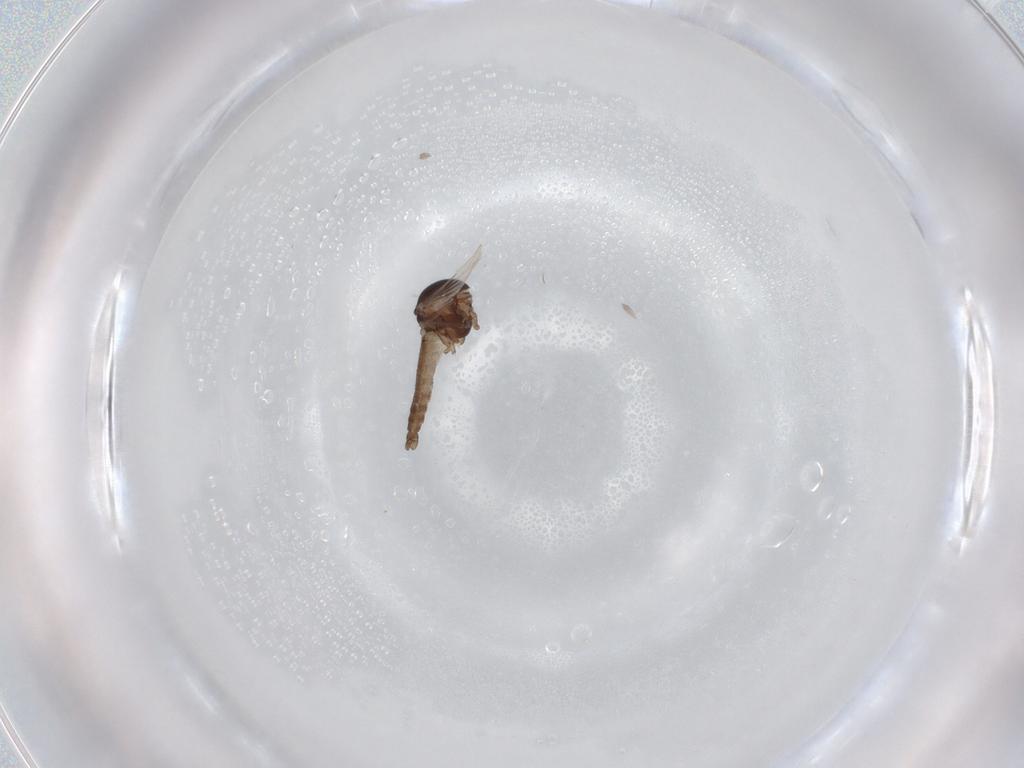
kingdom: Animalia
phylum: Arthropoda
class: Insecta
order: Diptera
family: Ceratopogonidae
